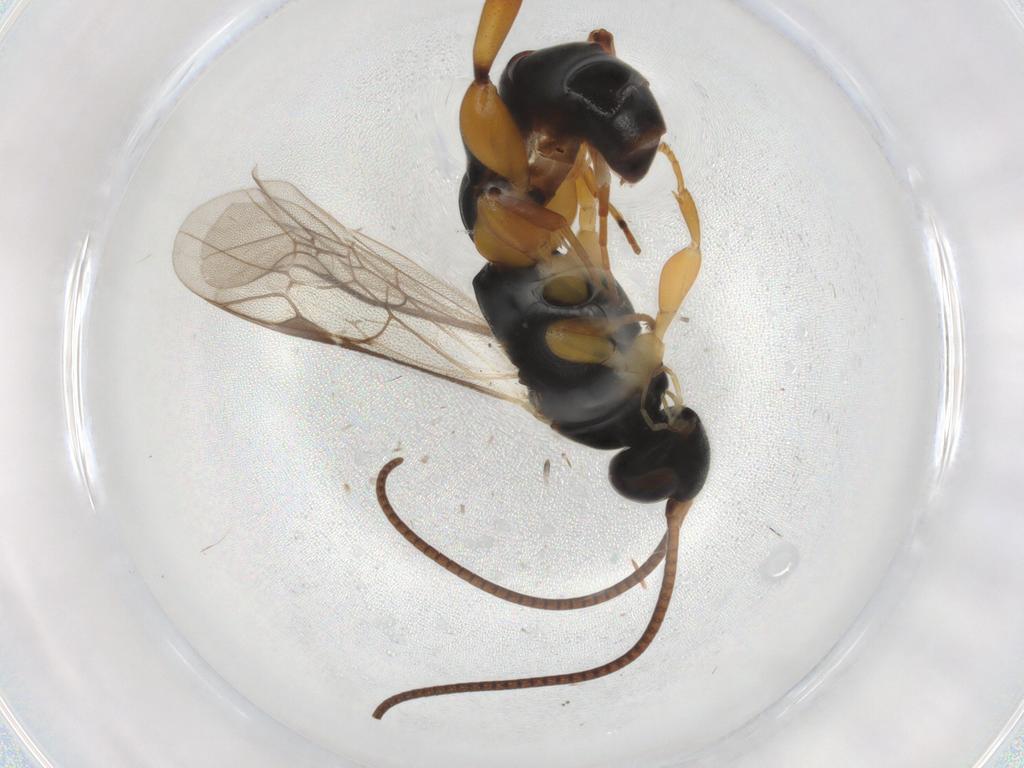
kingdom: Animalia
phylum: Arthropoda
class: Insecta
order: Hymenoptera
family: Ichneumonidae
